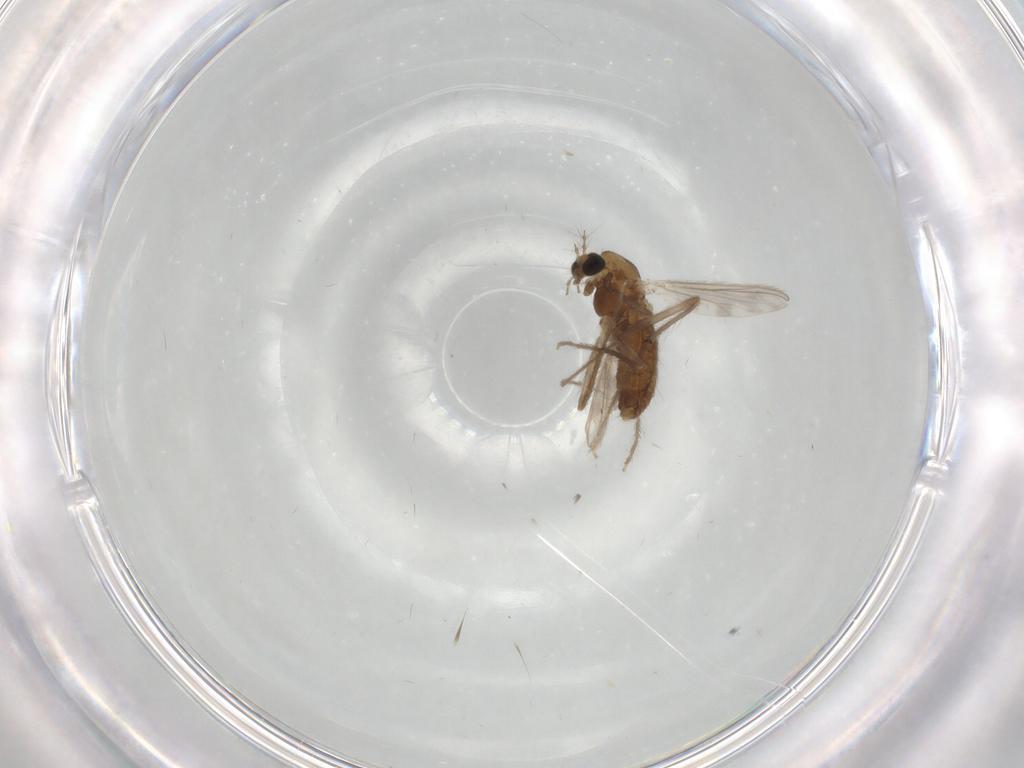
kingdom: Animalia
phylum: Arthropoda
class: Insecta
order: Diptera
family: Chironomidae
